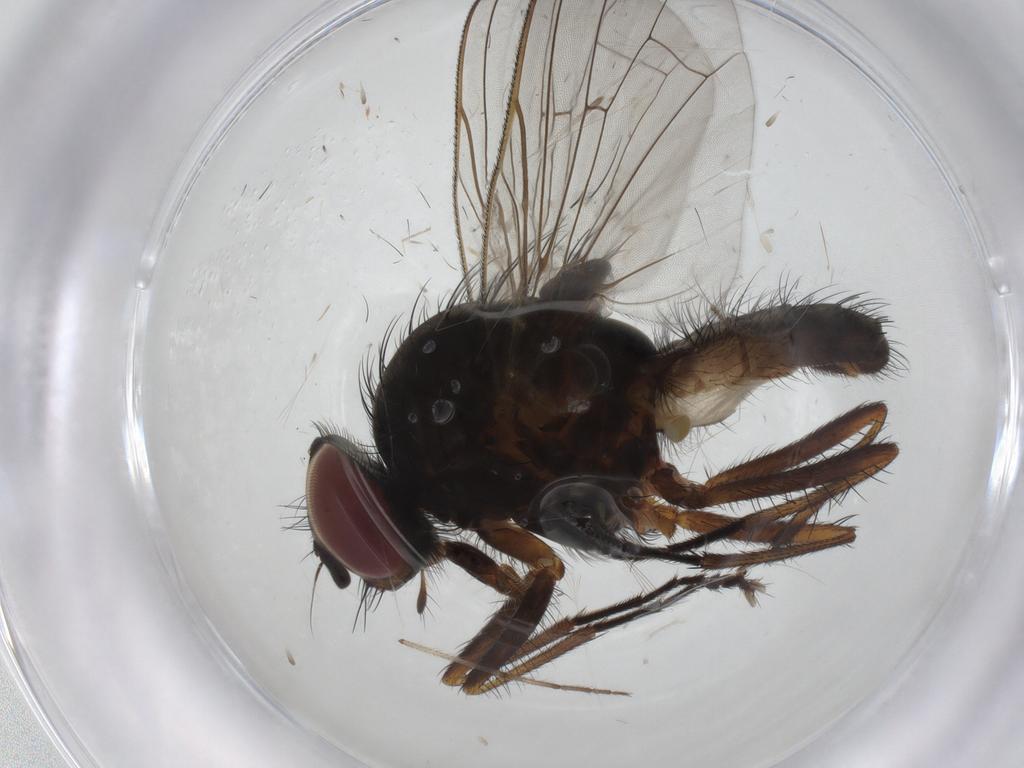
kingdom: Animalia
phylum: Arthropoda
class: Insecta
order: Diptera
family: Ceratopogonidae
